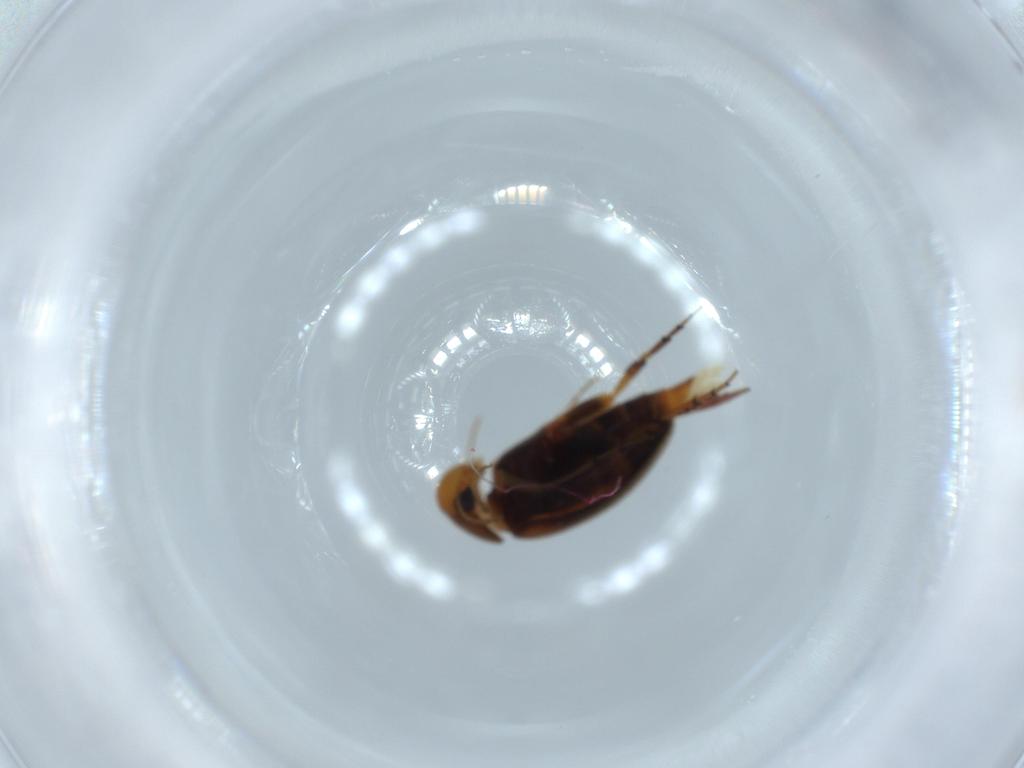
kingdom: Animalia
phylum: Arthropoda
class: Insecta
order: Coleoptera
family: Mordellidae
